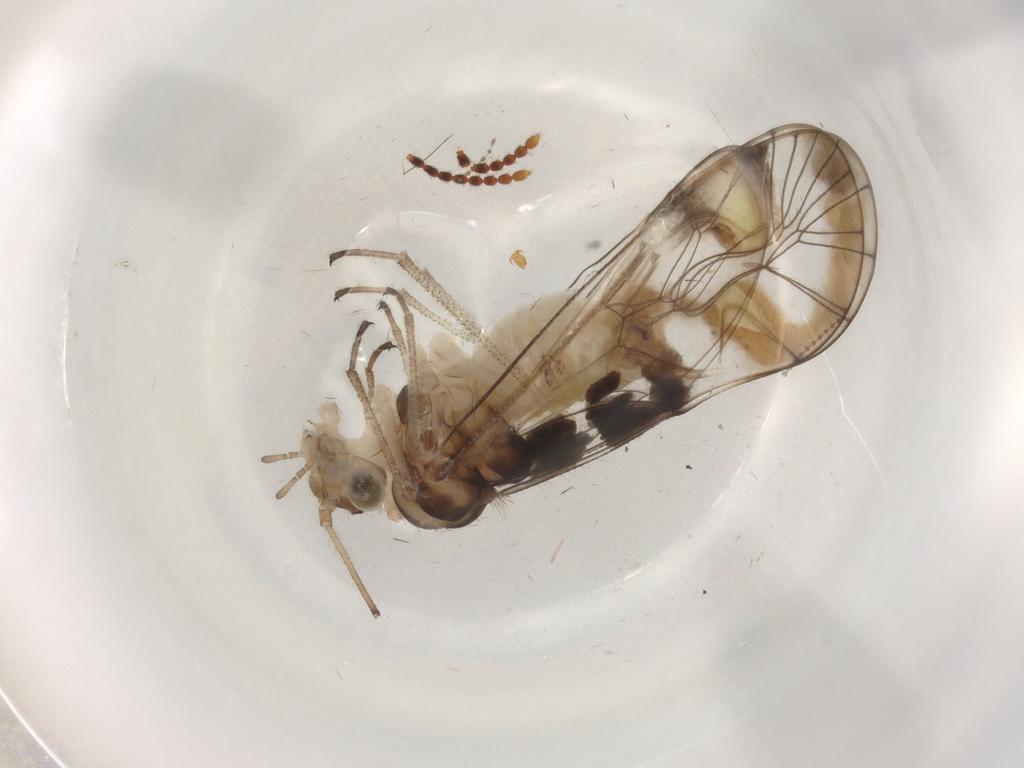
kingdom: Animalia
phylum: Arthropoda
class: Insecta
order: Psocodea
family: Amphipsocidae
